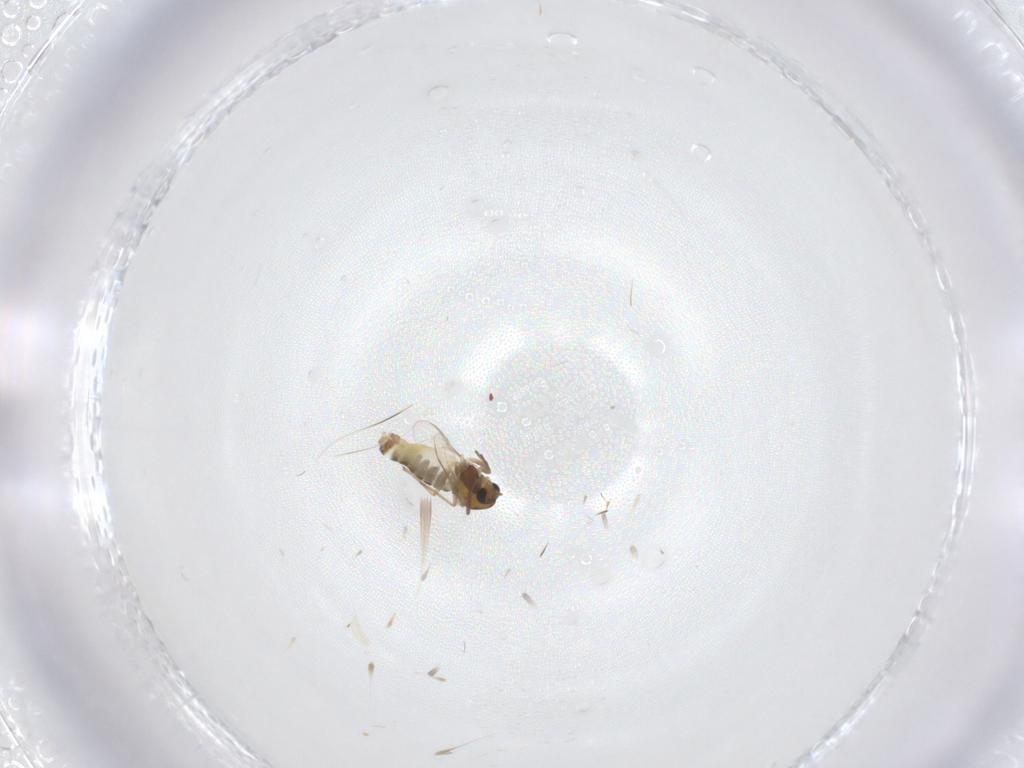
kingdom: Animalia
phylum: Arthropoda
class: Insecta
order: Diptera
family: Chironomidae
